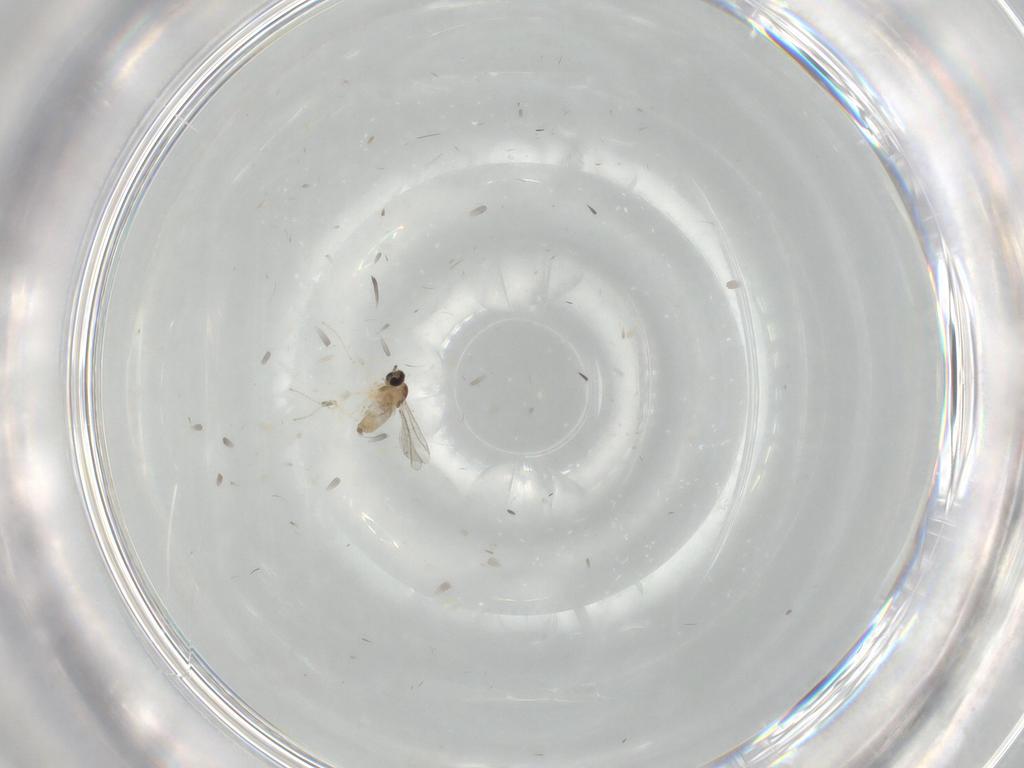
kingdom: Animalia
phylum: Arthropoda
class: Insecta
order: Diptera
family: Cecidomyiidae
